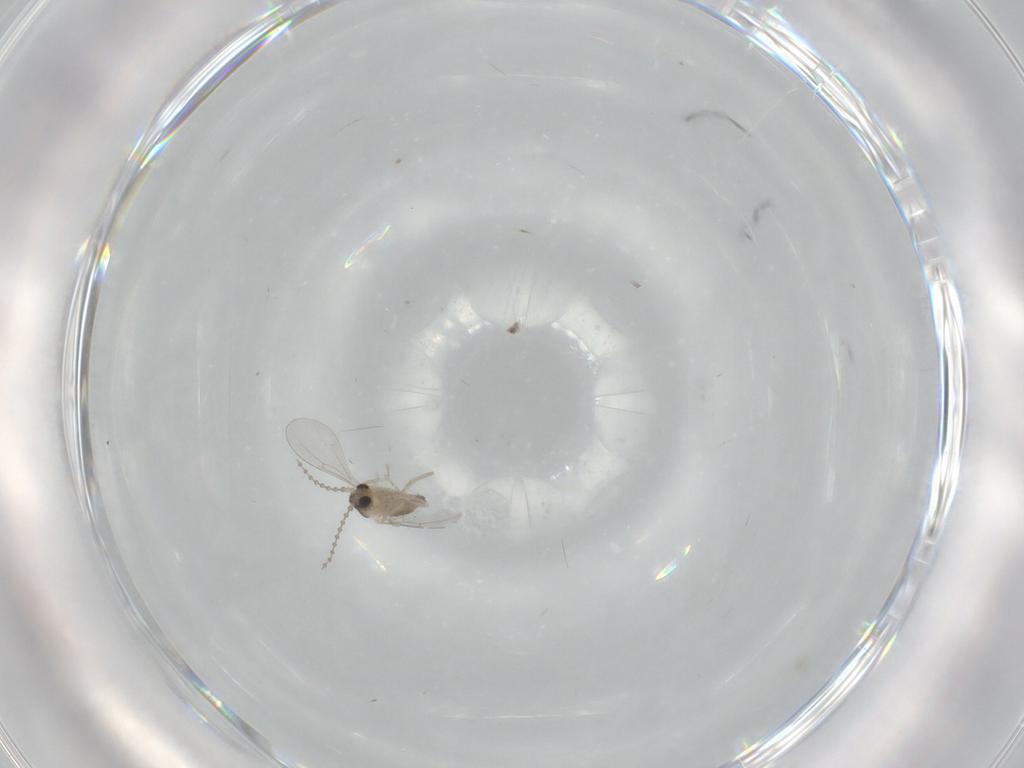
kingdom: Animalia
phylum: Arthropoda
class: Insecta
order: Diptera
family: Cecidomyiidae
